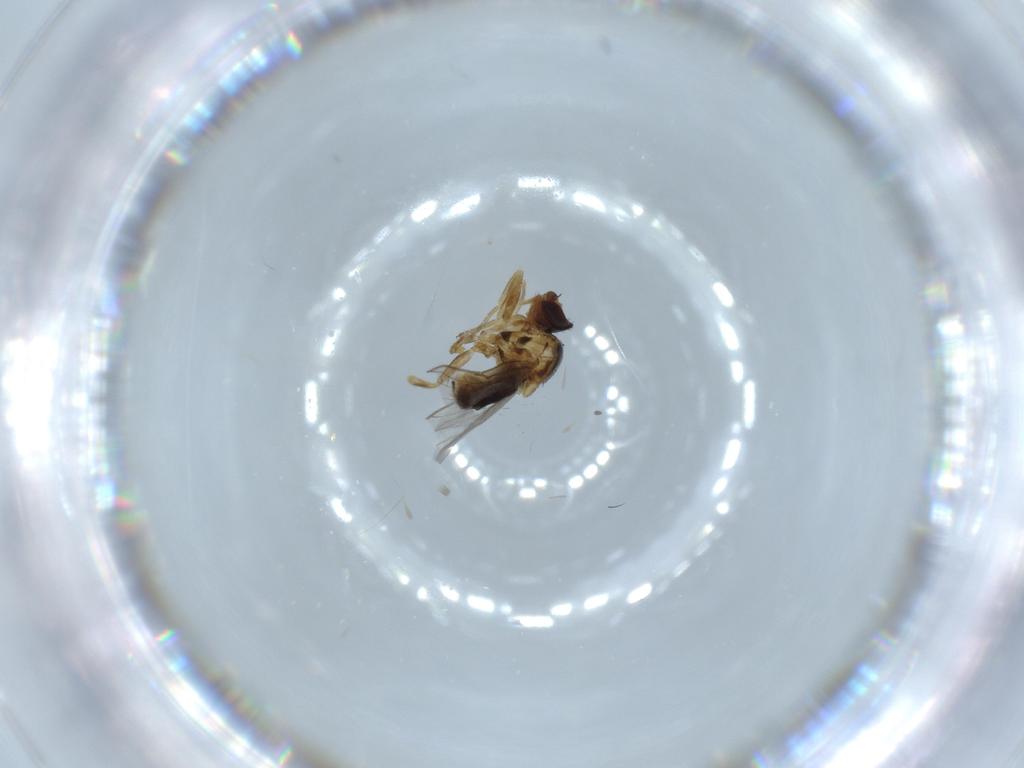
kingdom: Animalia
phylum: Arthropoda
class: Insecta
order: Diptera
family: Chloropidae
